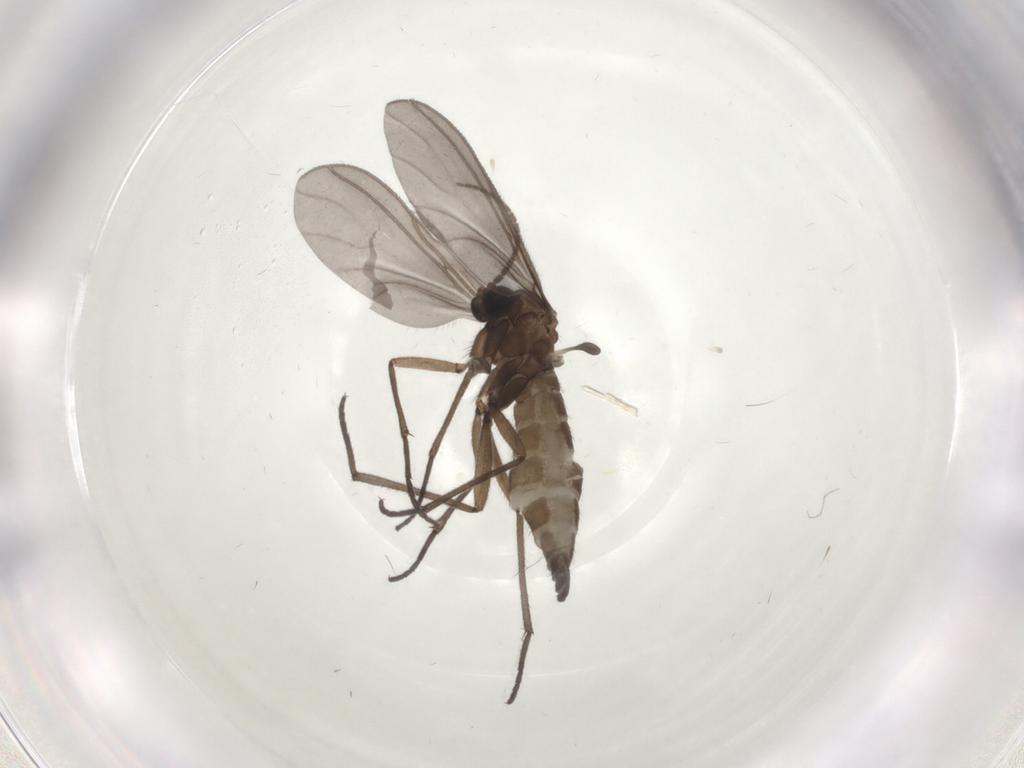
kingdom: Animalia
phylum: Arthropoda
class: Insecta
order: Diptera
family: Sciaridae
